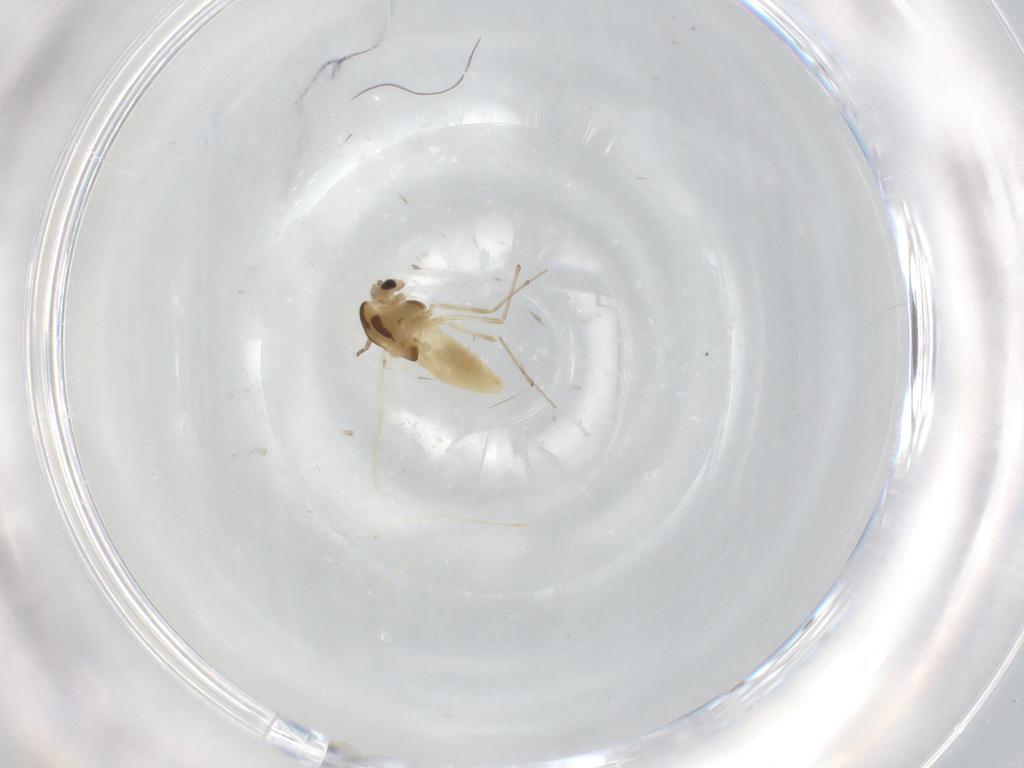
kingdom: Animalia
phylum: Arthropoda
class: Insecta
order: Diptera
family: Chironomidae
